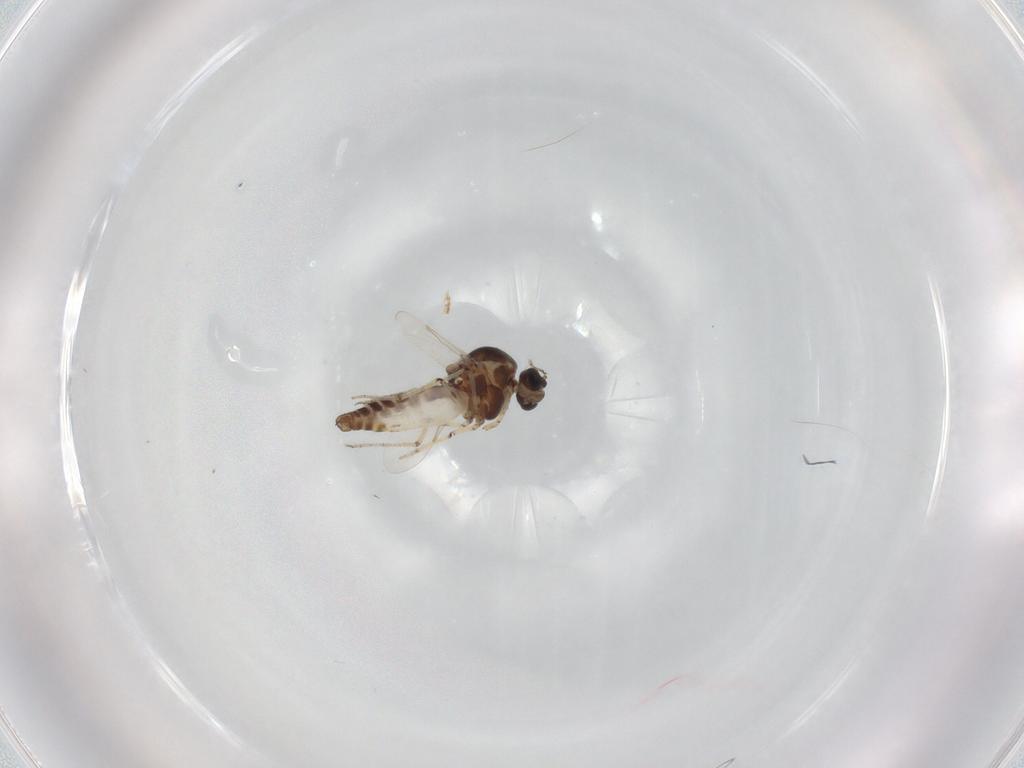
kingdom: Animalia
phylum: Arthropoda
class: Insecta
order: Diptera
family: Ceratopogonidae
